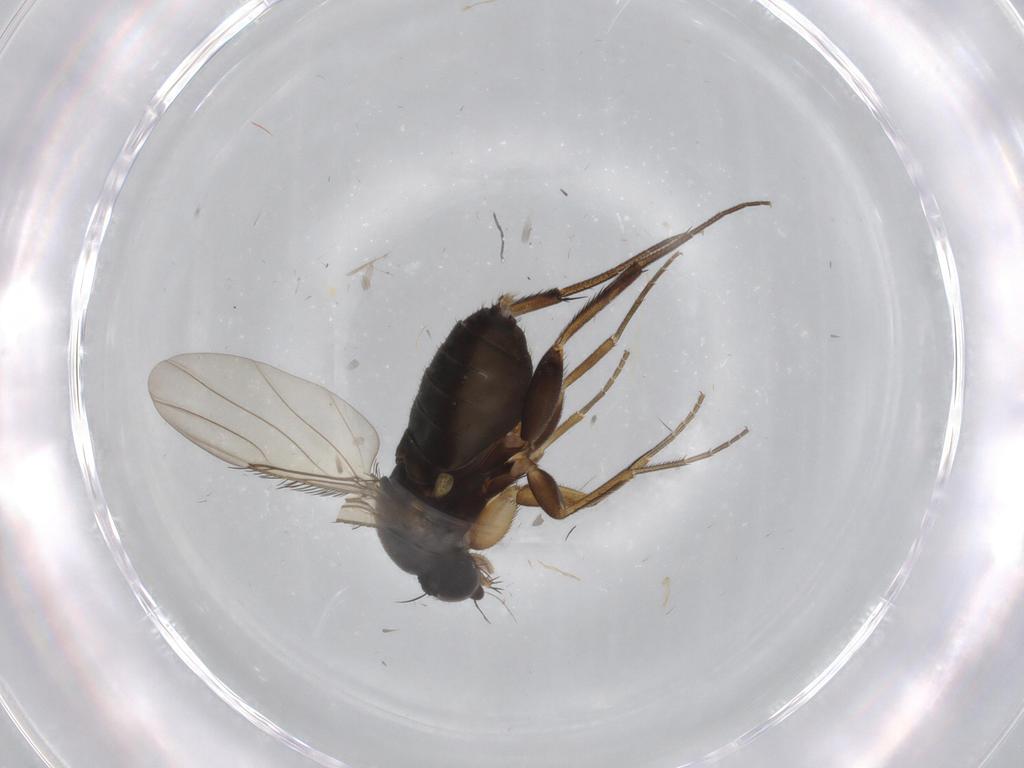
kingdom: Animalia
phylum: Arthropoda
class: Insecta
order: Diptera
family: Phoridae
